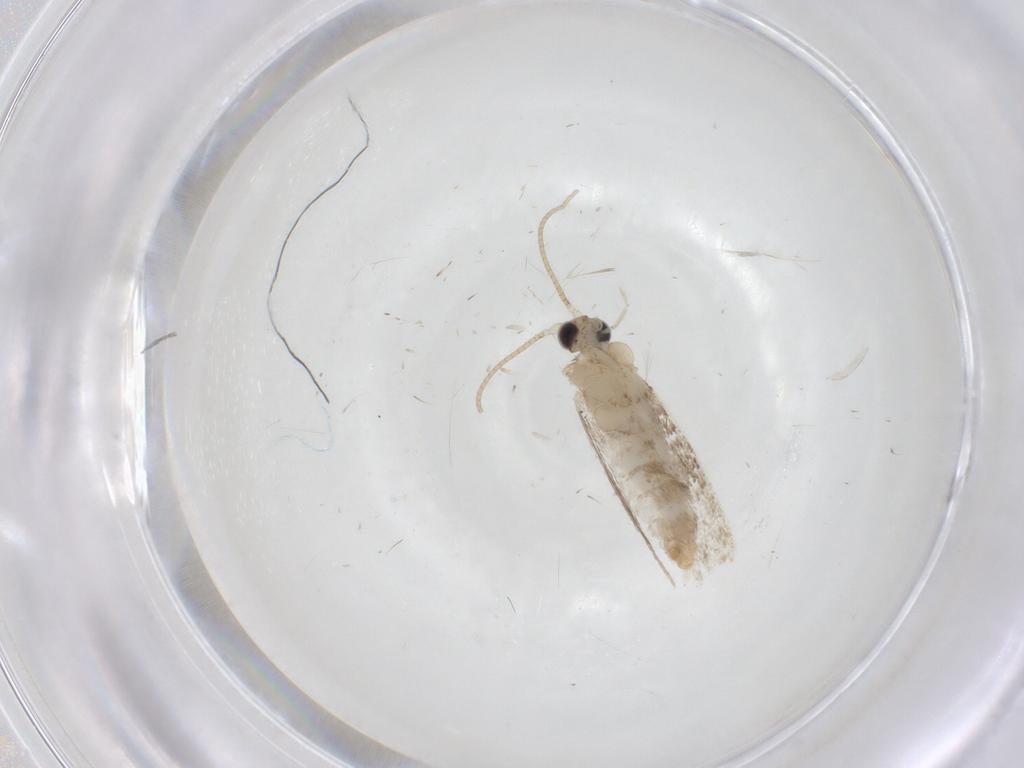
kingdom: Animalia
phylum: Arthropoda
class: Insecta
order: Lepidoptera
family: Dryadaulidae
